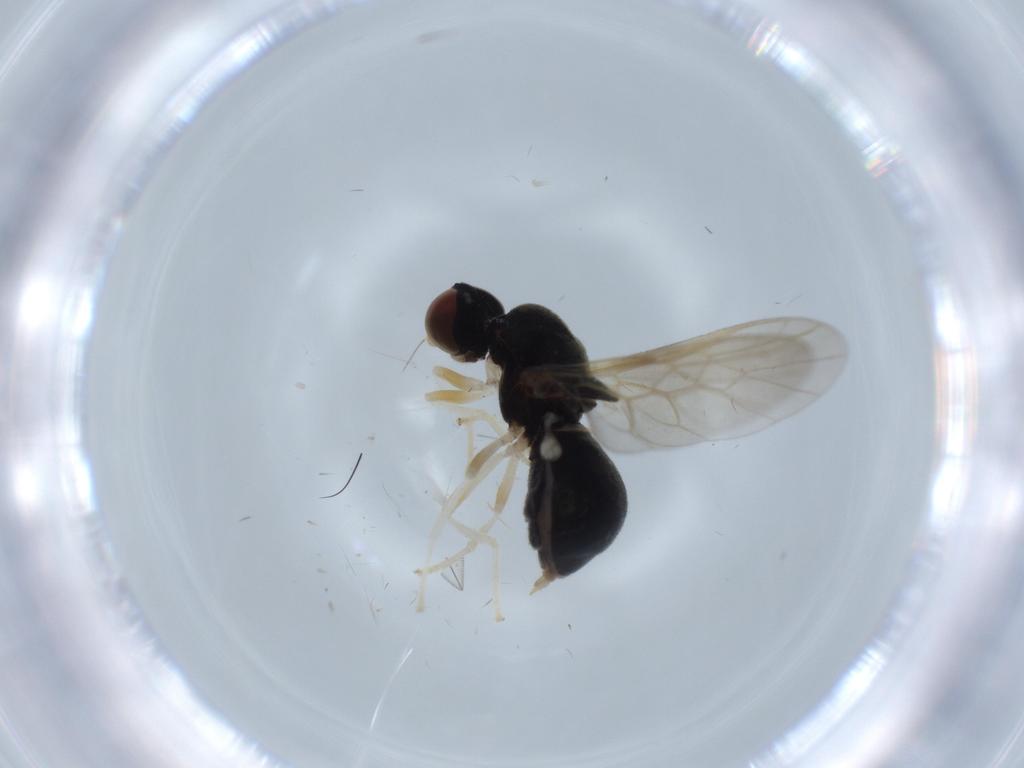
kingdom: Animalia
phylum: Arthropoda
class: Insecta
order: Diptera
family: Stratiomyidae
